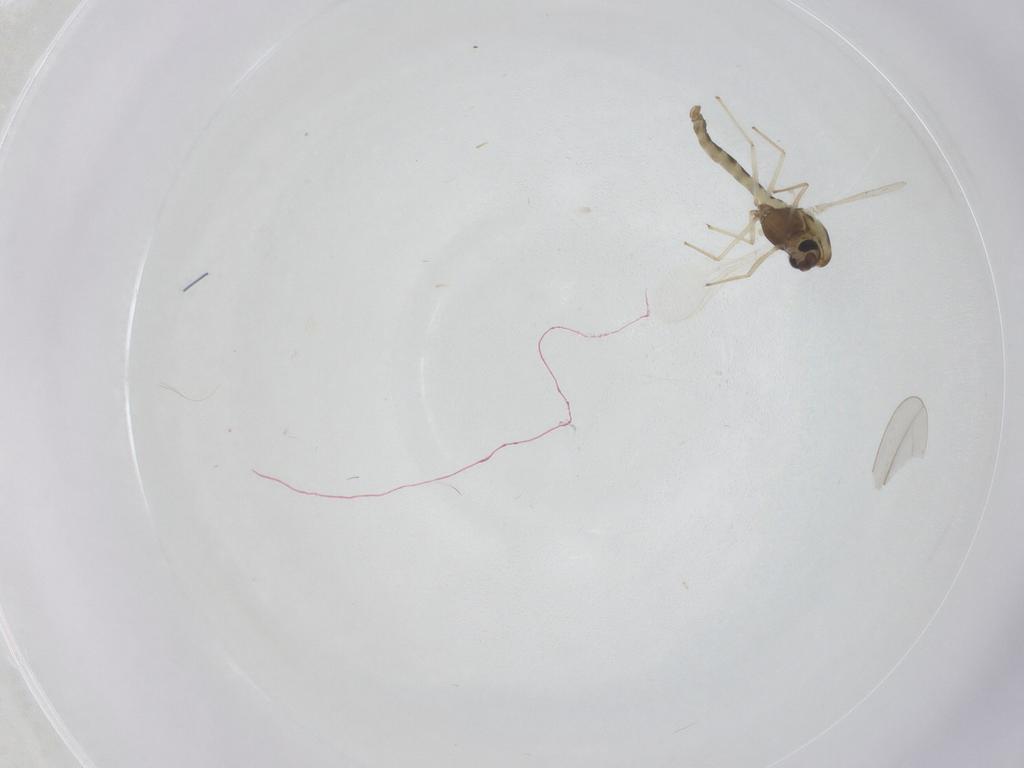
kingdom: Animalia
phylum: Arthropoda
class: Insecta
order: Diptera
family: Chironomidae
